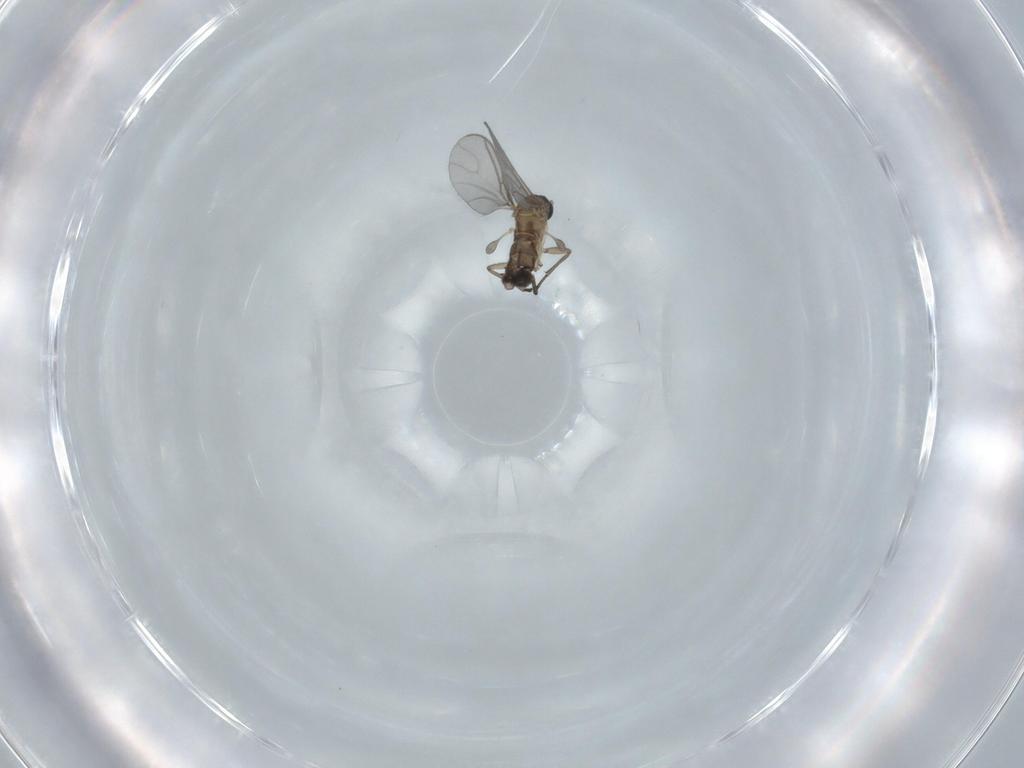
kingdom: Animalia
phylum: Arthropoda
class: Insecta
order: Diptera
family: Sciaridae
